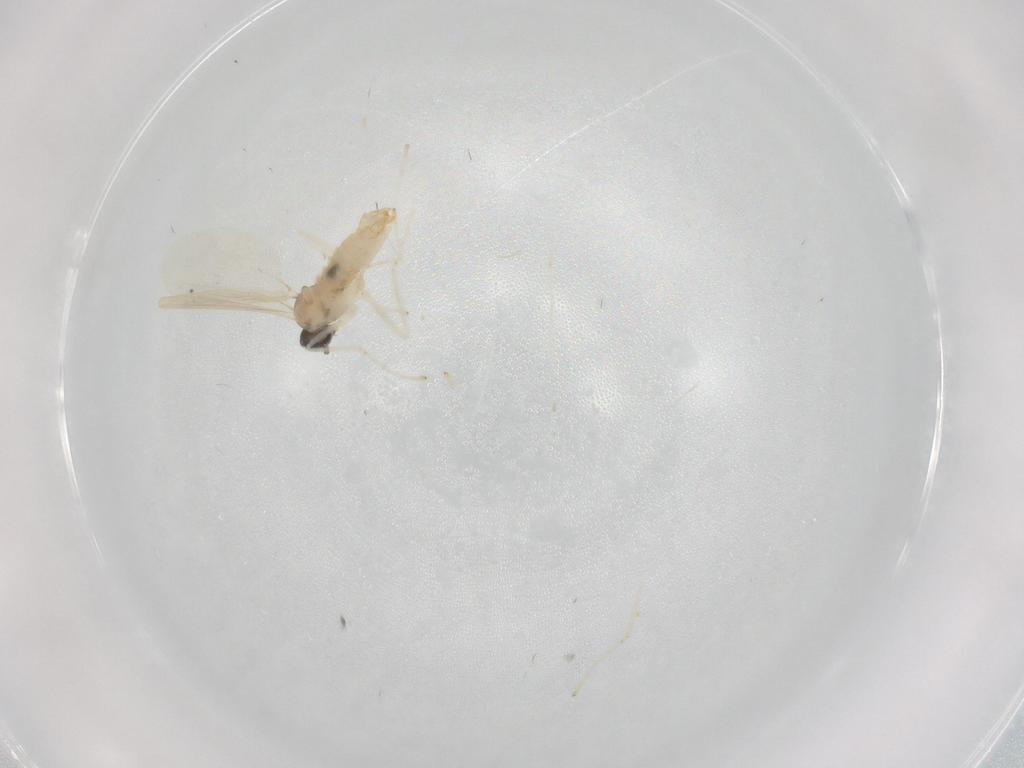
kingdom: Animalia
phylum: Arthropoda
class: Insecta
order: Diptera
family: Cecidomyiidae
